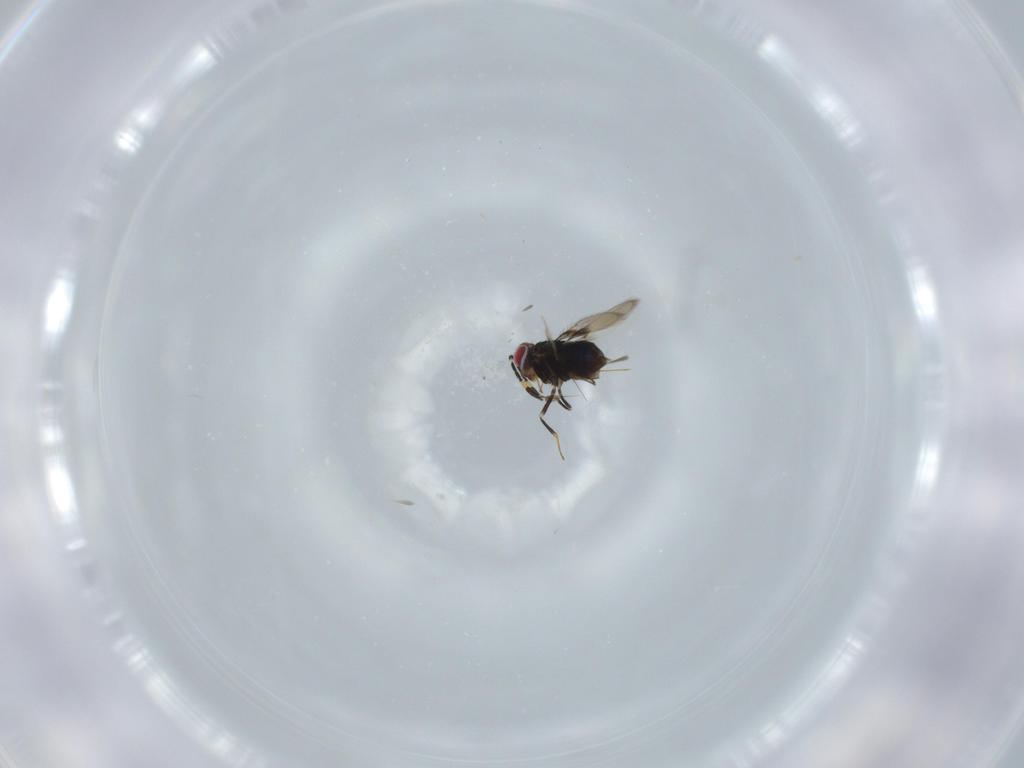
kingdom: Animalia
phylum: Arthropoda
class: Insecta
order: Hymenoptera
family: Azotidae
